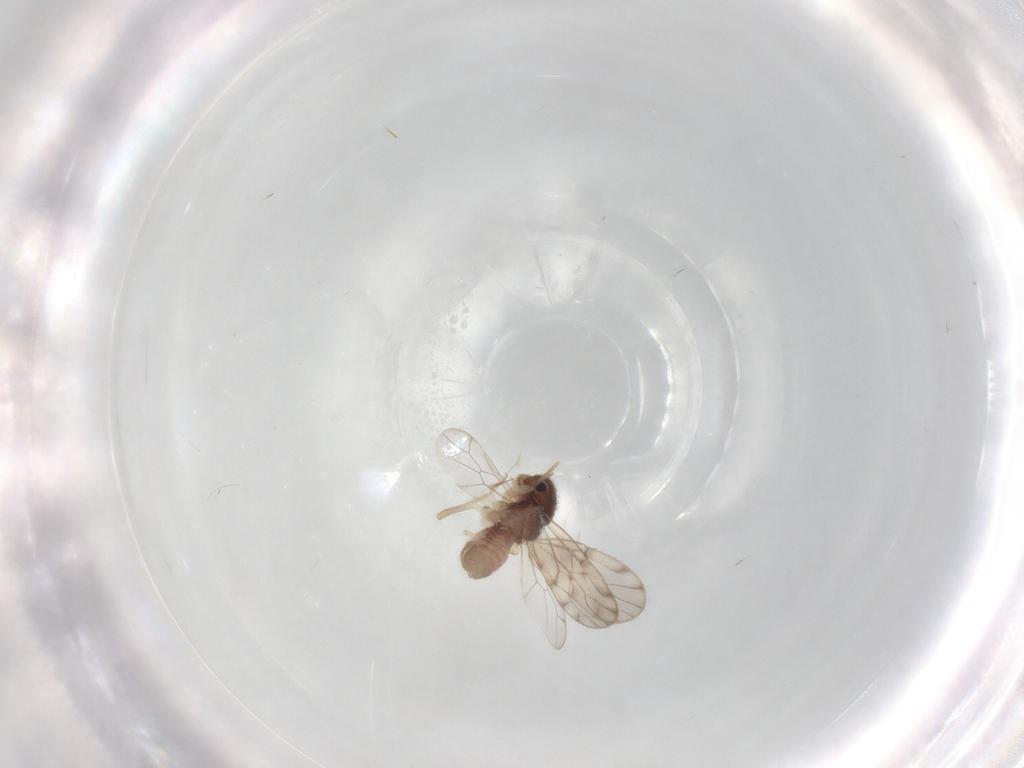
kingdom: Animalia
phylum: Arthropoda
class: Insecta
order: Psocodea
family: Peripsocidae
